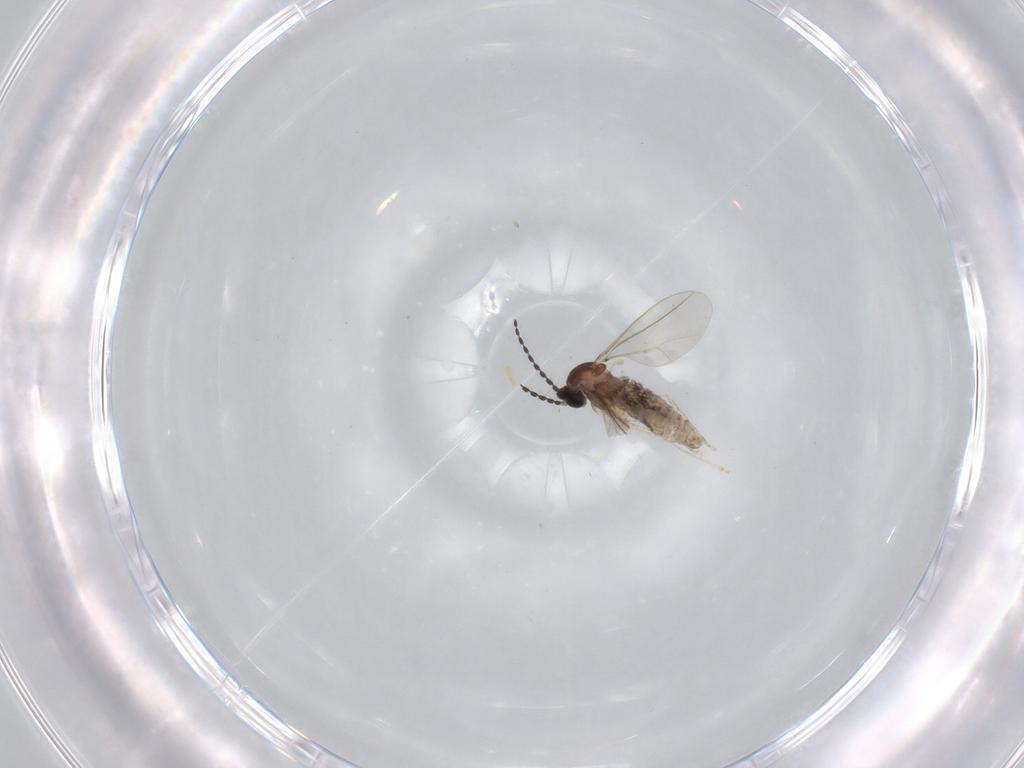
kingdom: Animalia
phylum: Arthropoda
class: Insecta
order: Diptera
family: Cecidomyiidae
